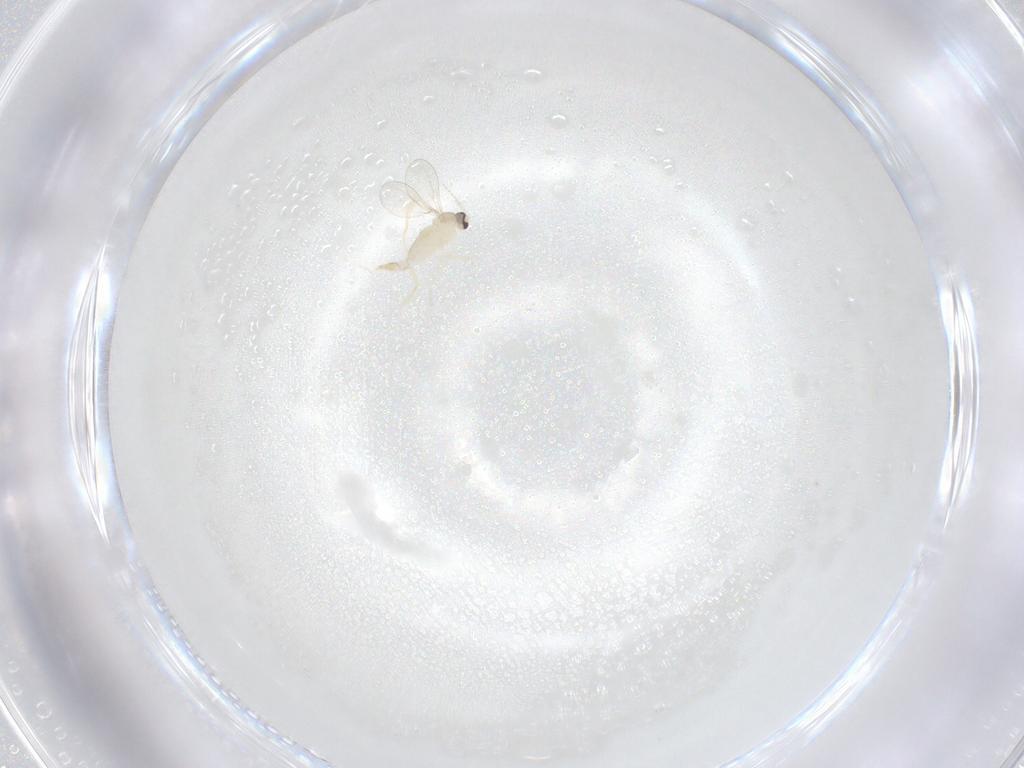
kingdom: Animalia
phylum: Arthropoda
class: Insecta
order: Diptera
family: Cecidomyiidae
